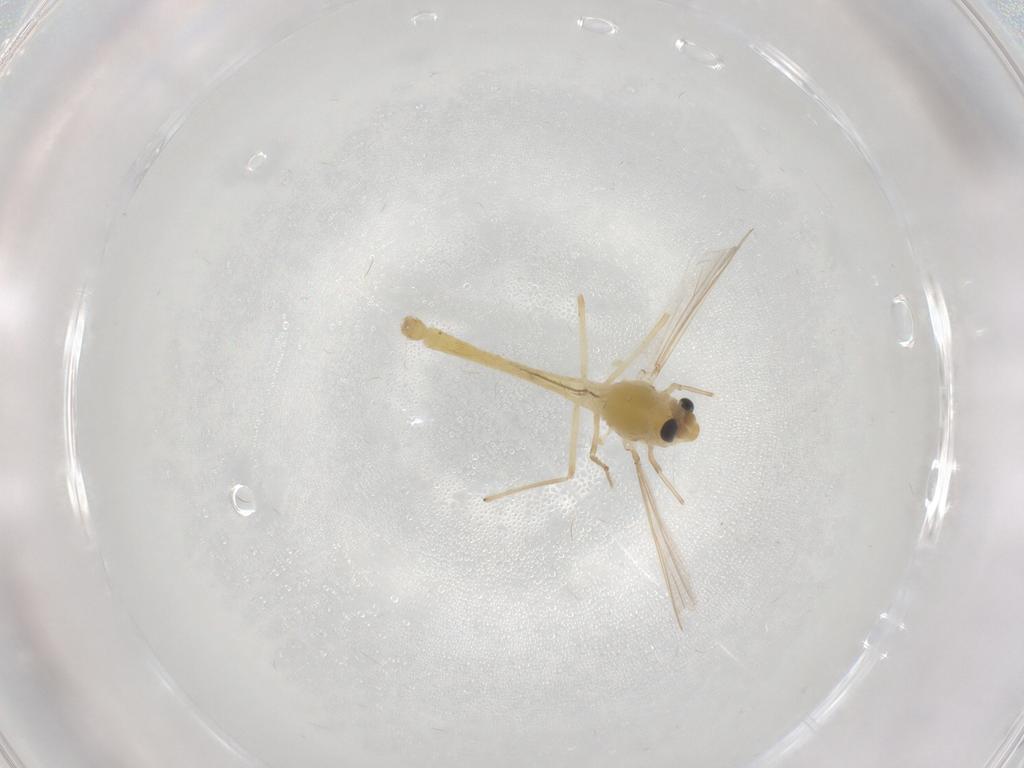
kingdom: Animalia
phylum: Arthropoda
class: Insecta
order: Diptera
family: Chironomidae
